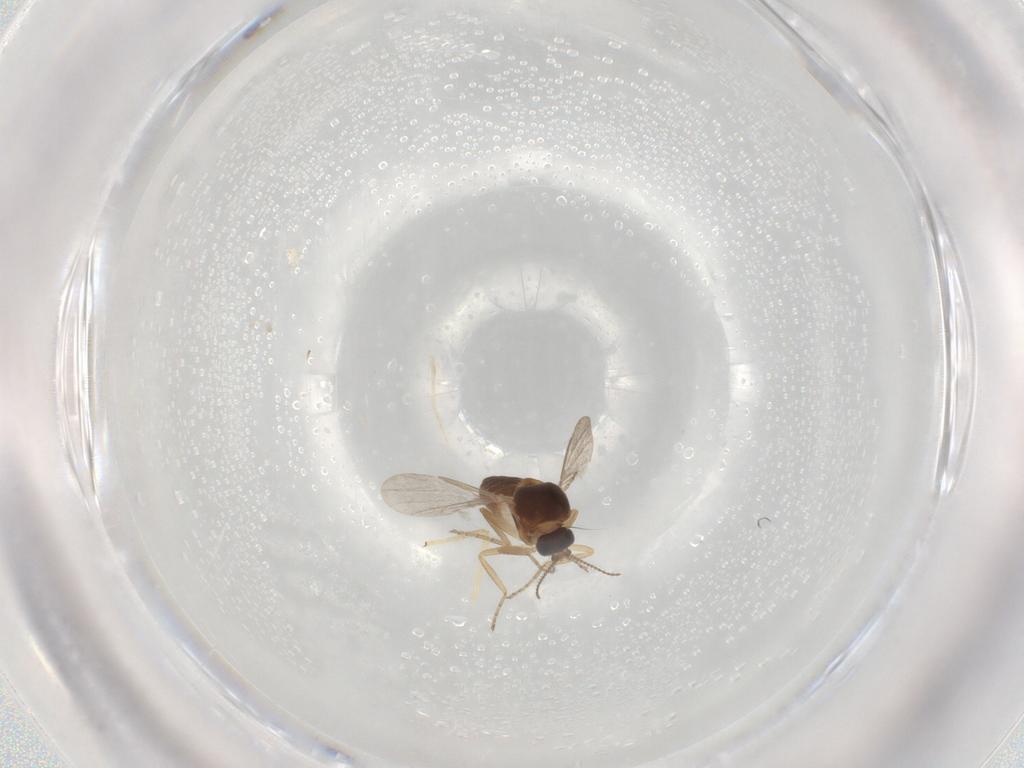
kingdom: Animalia
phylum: Arthropoda
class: Insecta
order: Diptera
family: Ceratopogonidae
